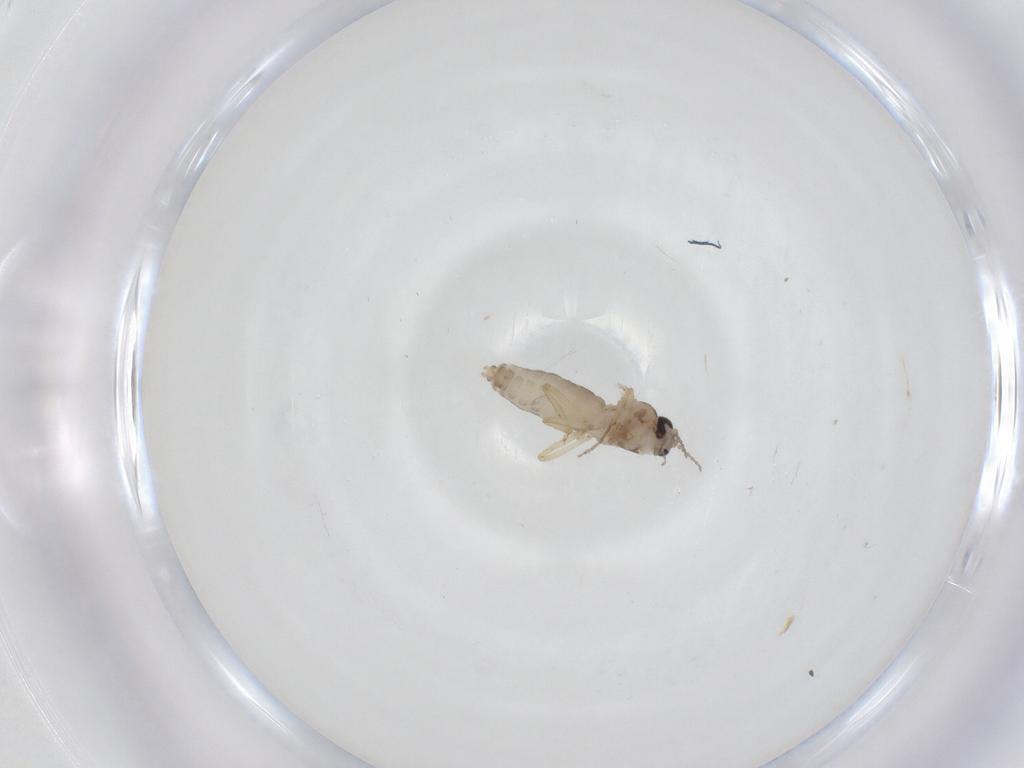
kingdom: Animalia
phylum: Arthropoda
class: Insecta
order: Diptera
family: Ceratopogonidae
